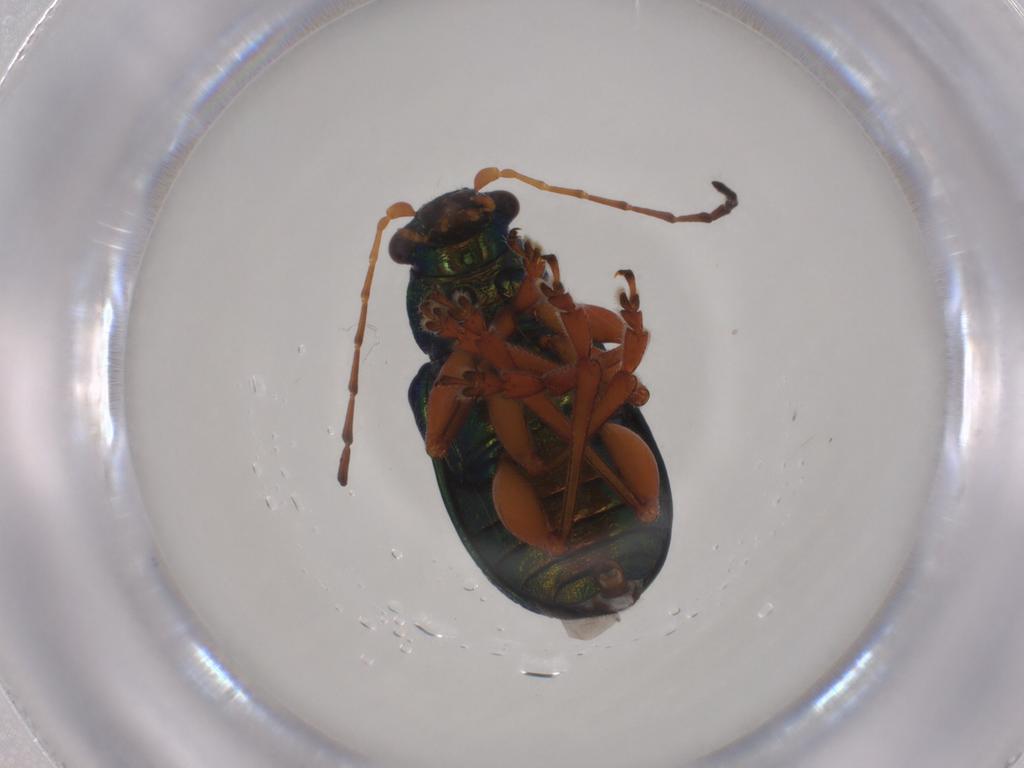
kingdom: Animalia
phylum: Arthropoda
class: Insecta
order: Coleoptera
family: Chrysomelidae
